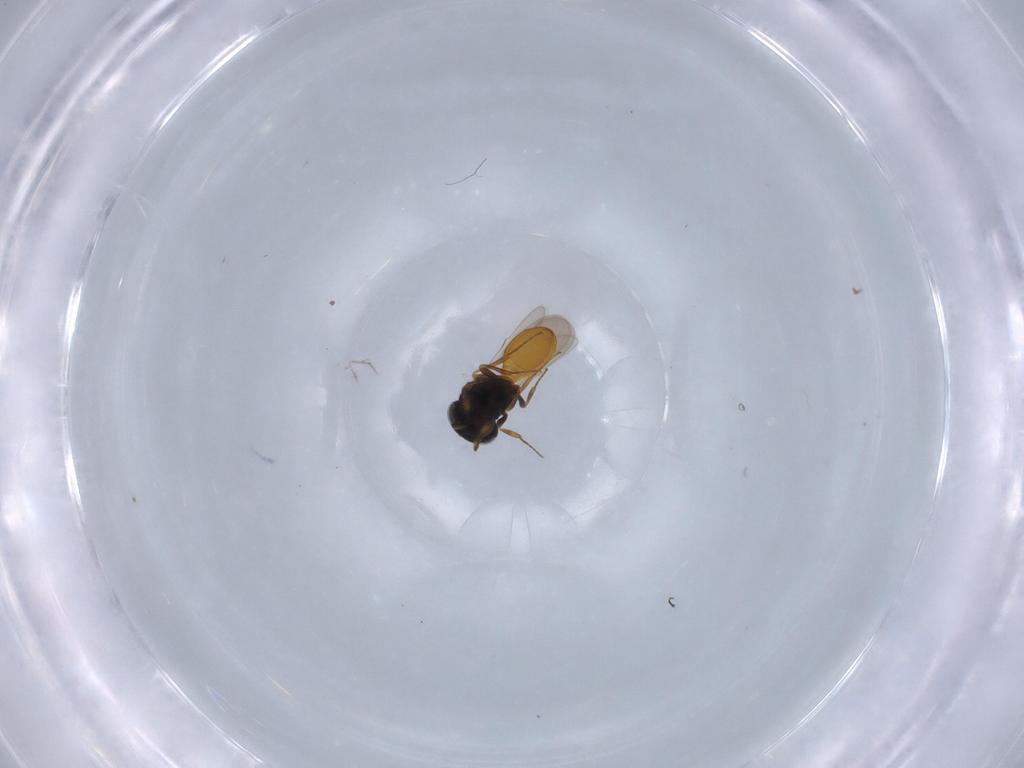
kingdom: Animalia
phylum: Arthropoda
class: Insecta
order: Hymenoptera
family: Scelionidae
